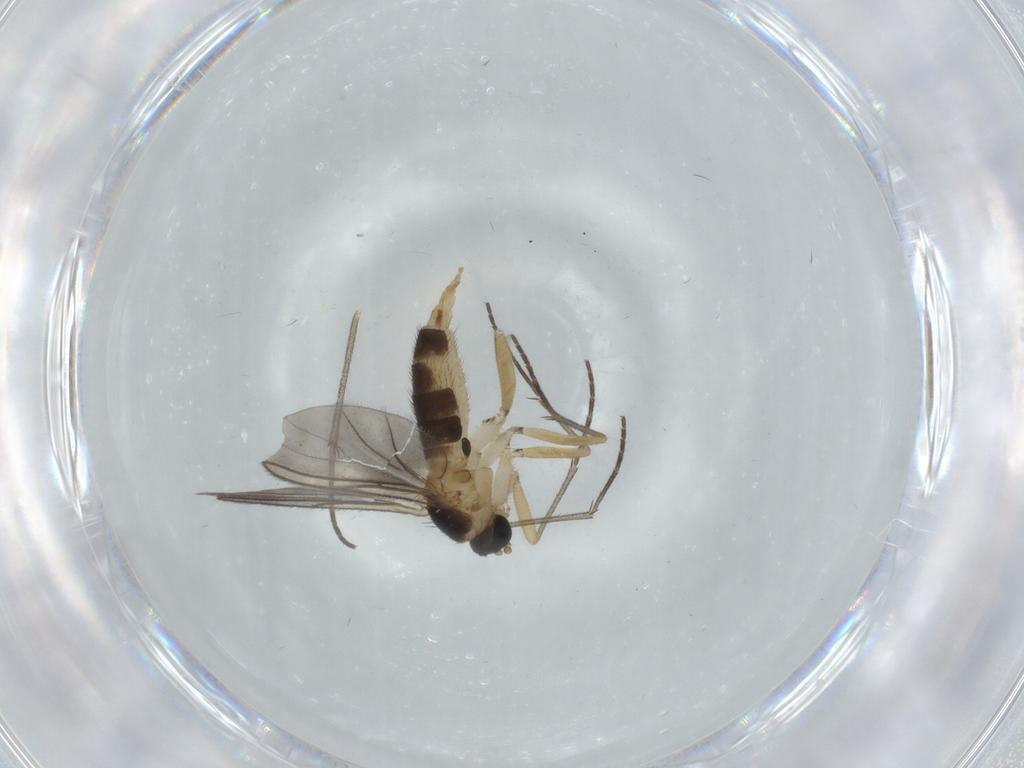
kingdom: Animalia
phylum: Arthropoda
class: Insecta
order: Diptera
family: Sciaridae
